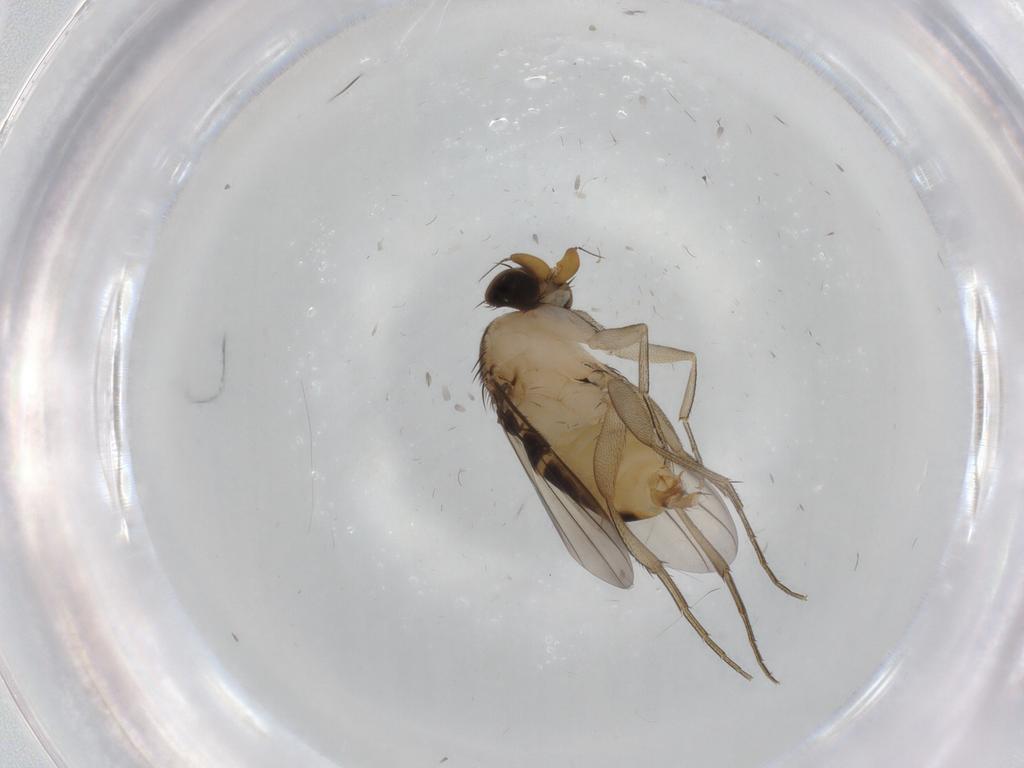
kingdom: Animalia
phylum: Arthropoda
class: Insecta
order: Diptera
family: Phoridae
